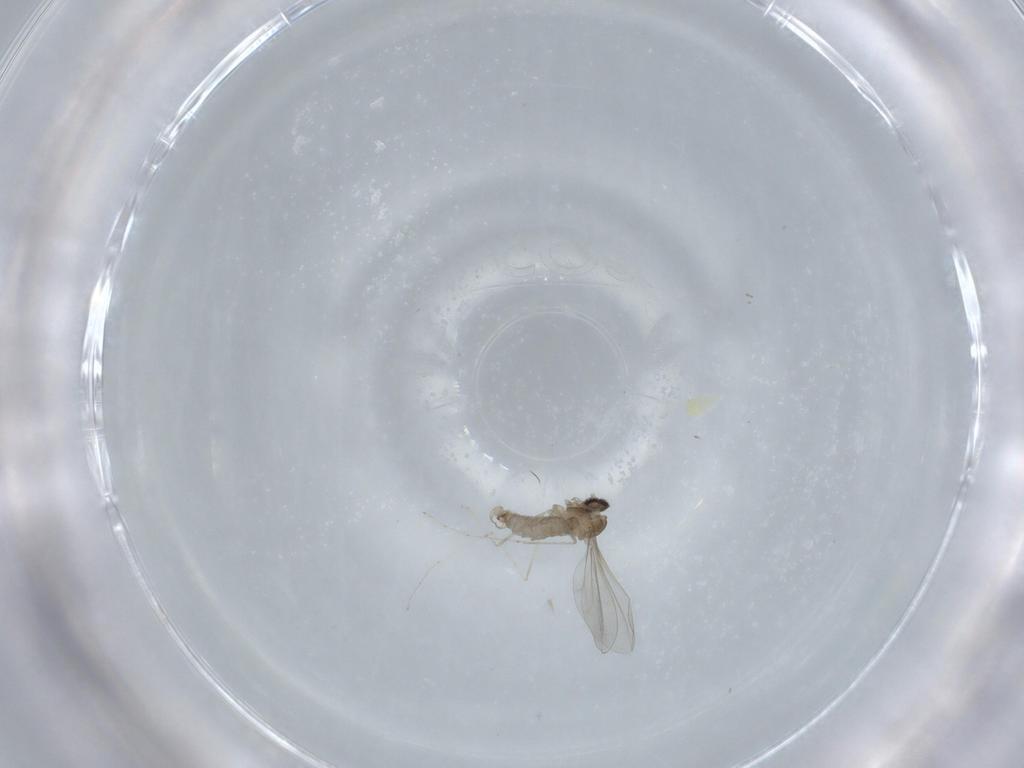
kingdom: Animalia
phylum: Arthropoda
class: Insecta
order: Diptera
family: Cecidomyiidae
